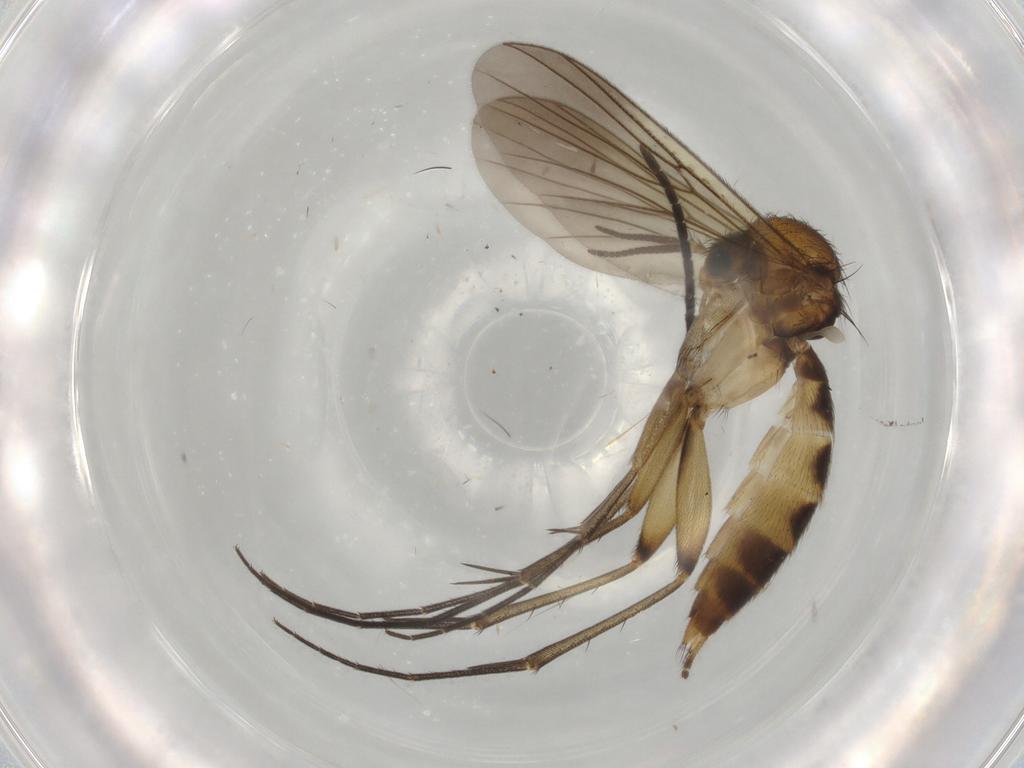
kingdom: Animalia
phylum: Arthropoda
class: Insecta
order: Diptera
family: Mycetophilidae
